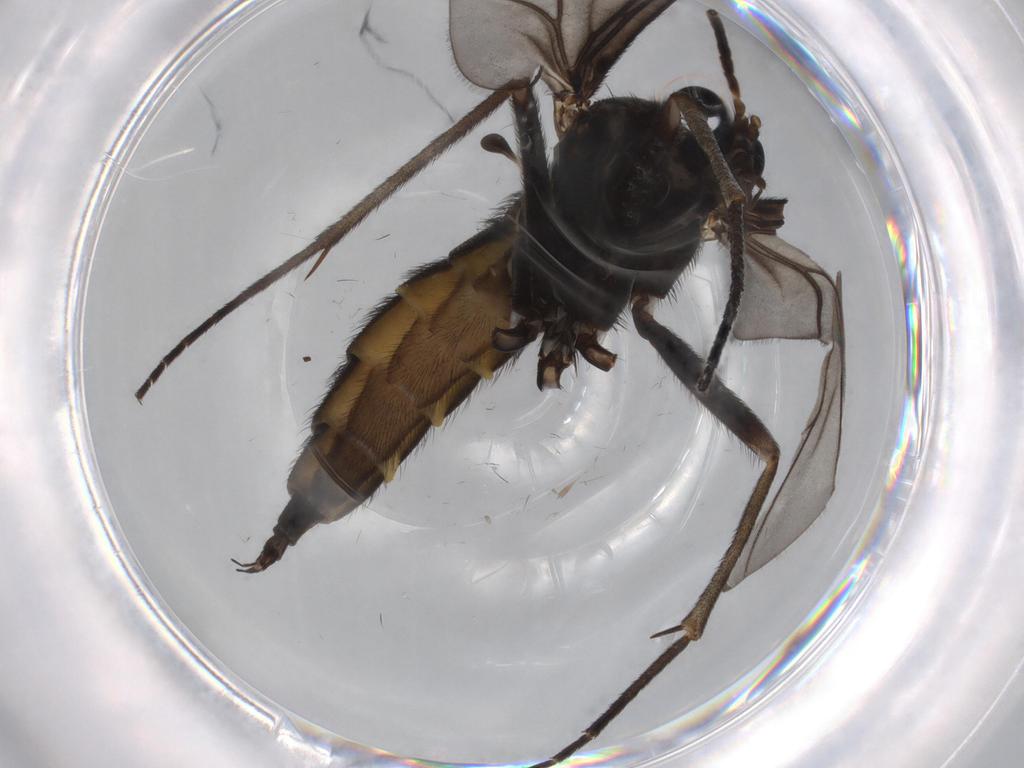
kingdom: Animalia
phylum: Arthropoda
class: Insecta
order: Diptera
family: Sciaridae
